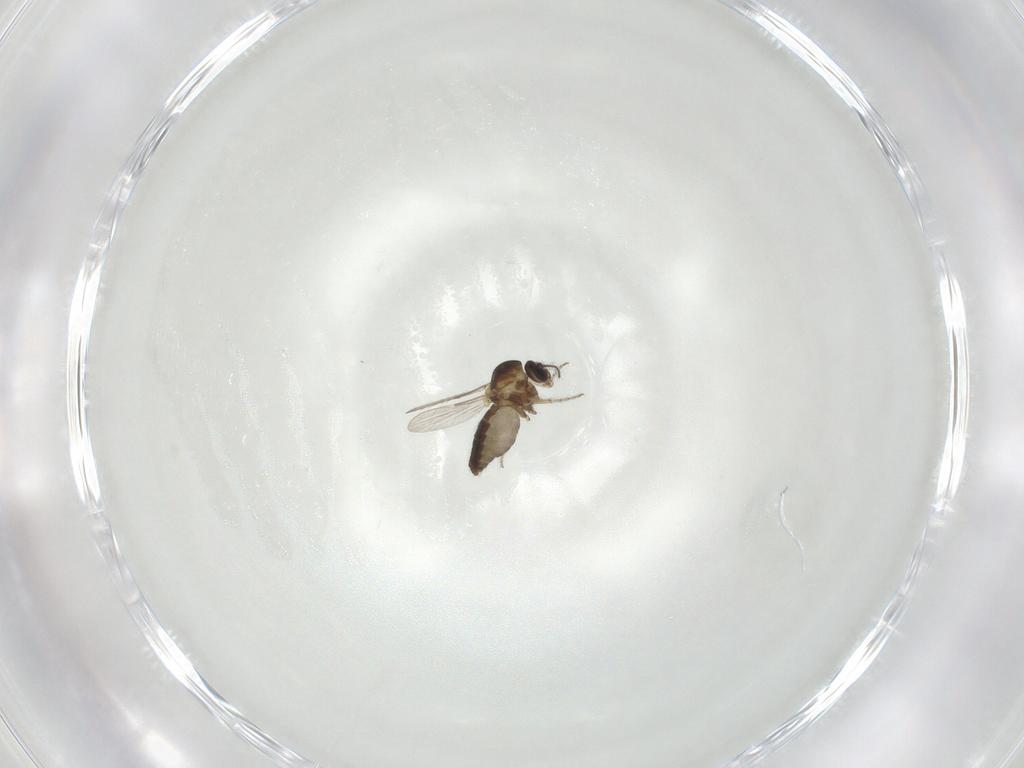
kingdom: Animalia
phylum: Arthropoda
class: Insecta
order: Diptera
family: Ceratopogonidae
